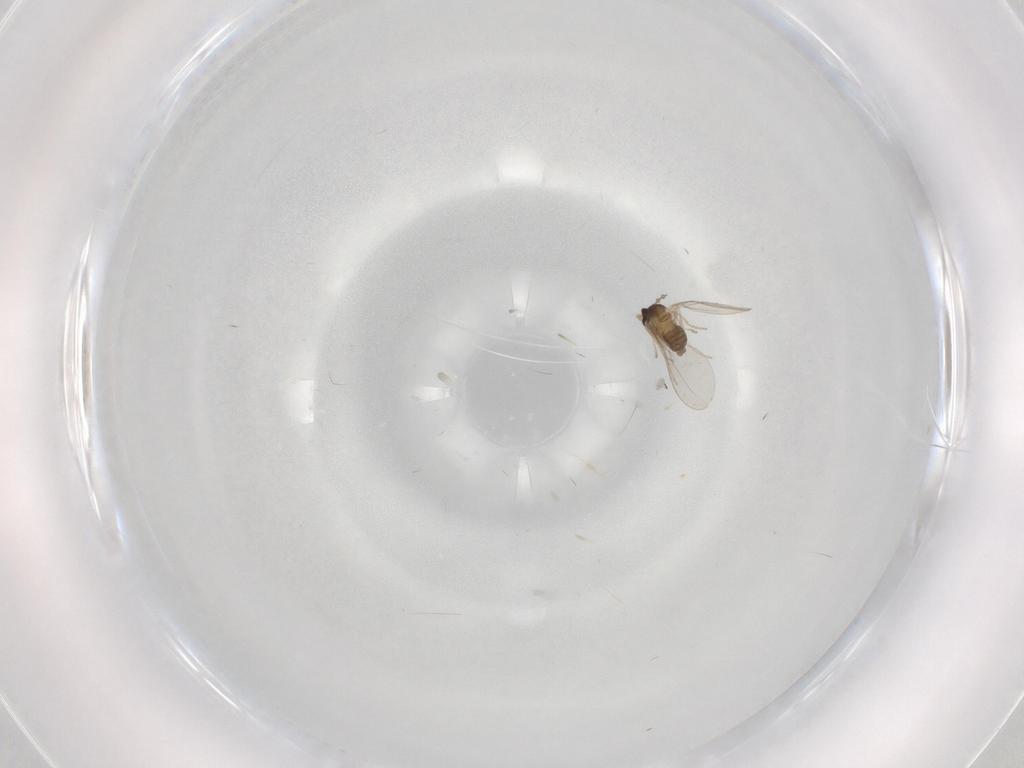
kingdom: Animalia
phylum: Arthropoda
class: Insecta
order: Diptera
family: Cecidomyiidae
